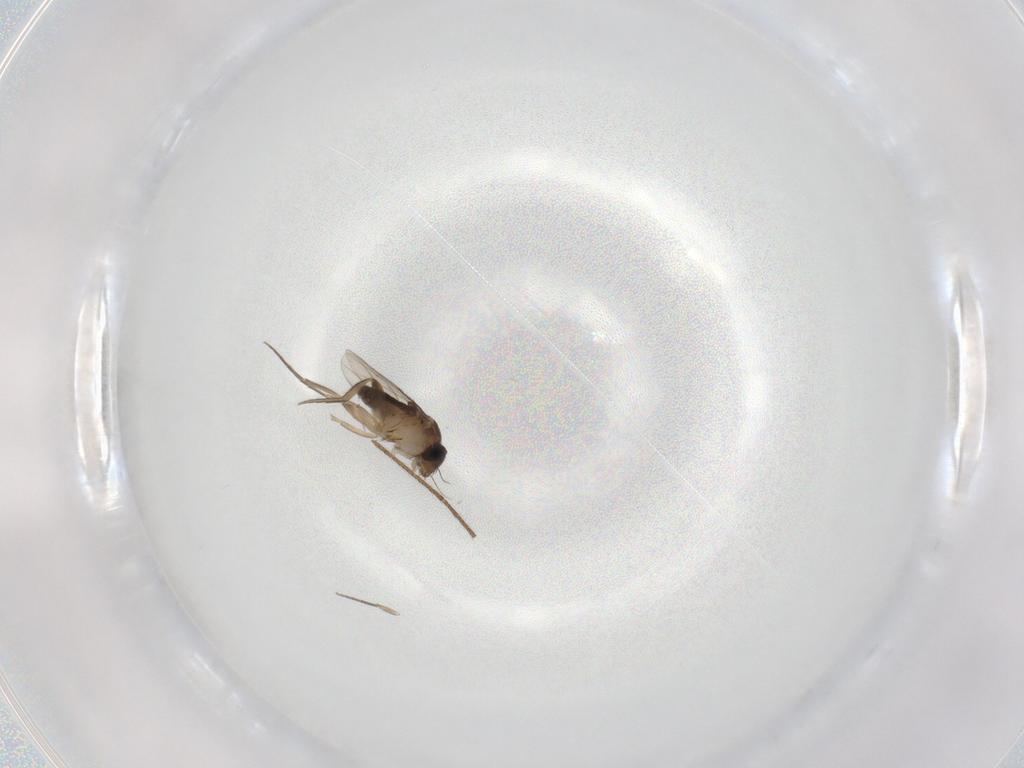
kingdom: Animalia
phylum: Arthropoda
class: Insecta
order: Diptera
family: Limoniidae
